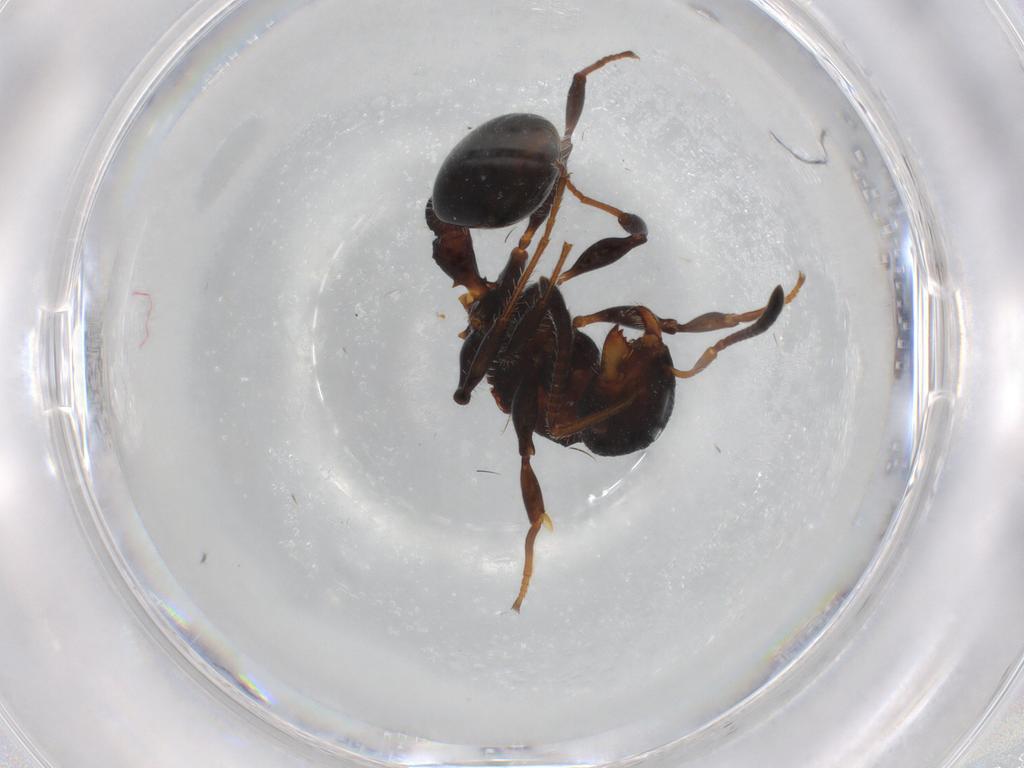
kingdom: Animalia
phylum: Arthropoda
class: Insecta
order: Hymenoptera
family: Formicidae
